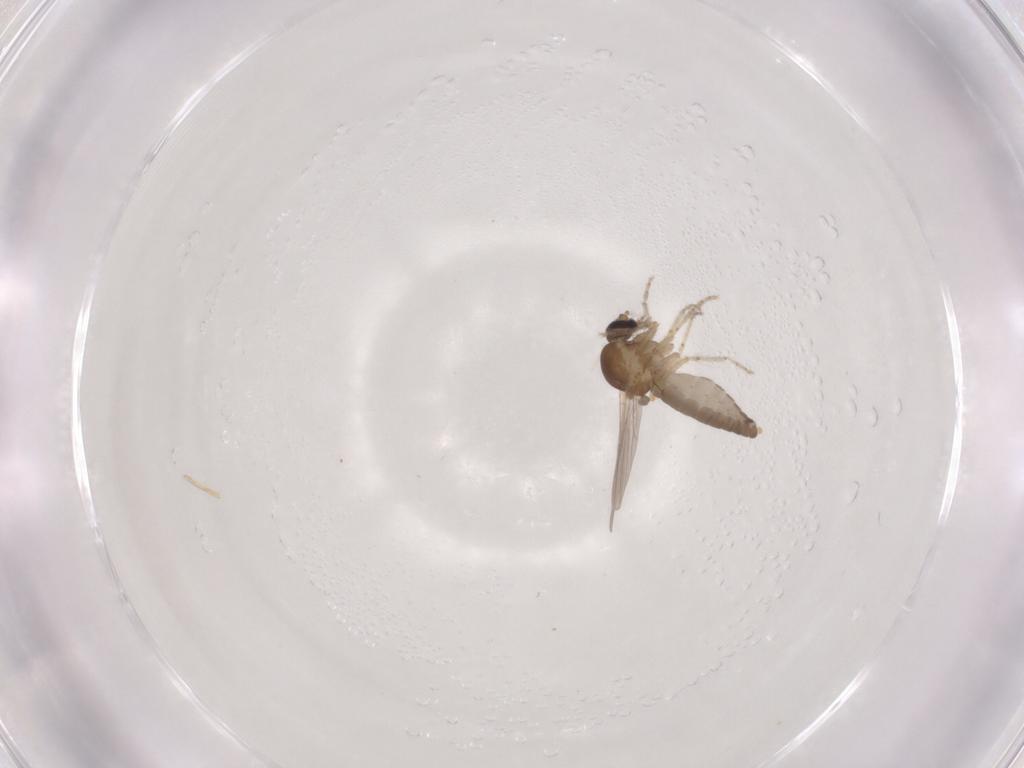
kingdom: Animalia
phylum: Arthropoda
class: Insecta
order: Diptera
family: Ceratopogonidae
